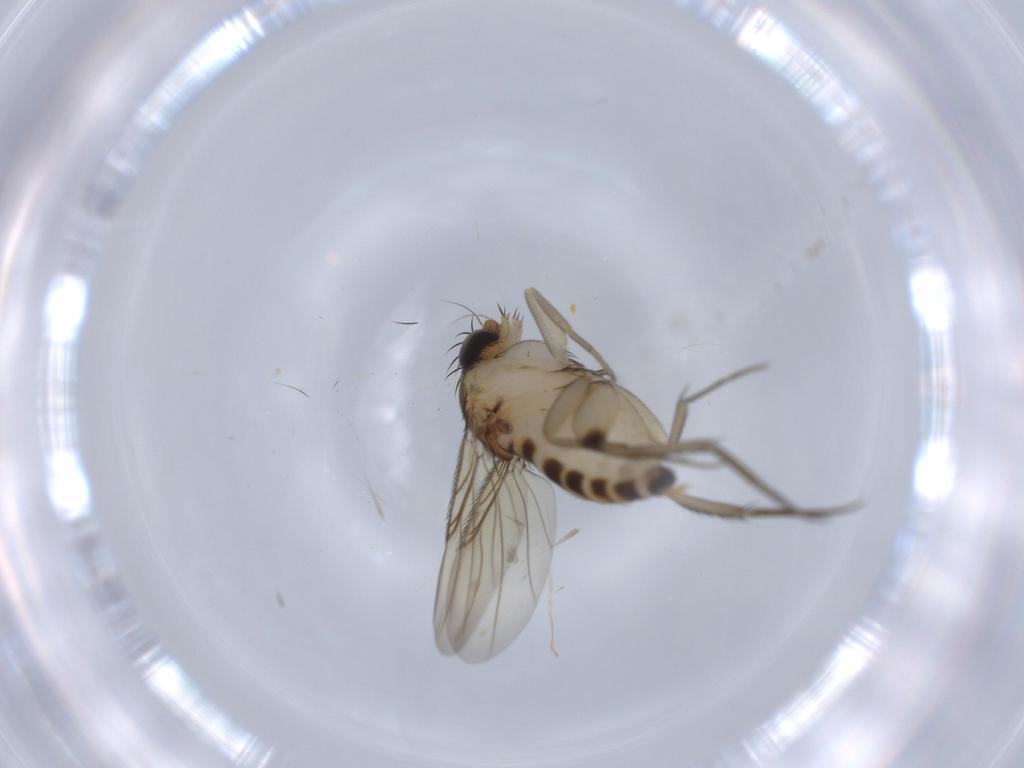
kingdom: Animalia
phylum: Arthropoda
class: Insecta
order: Diptera
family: Phoridae
